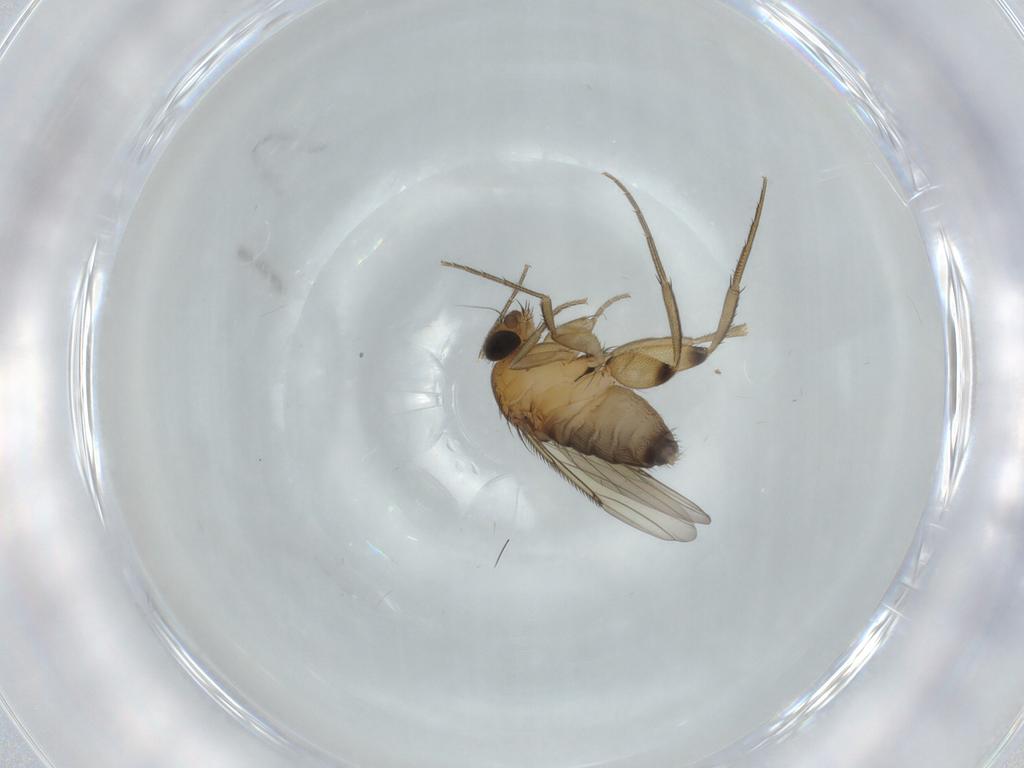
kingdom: Animalia
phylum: Arthropoda
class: Insecta
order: Diptera
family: Phoridae
